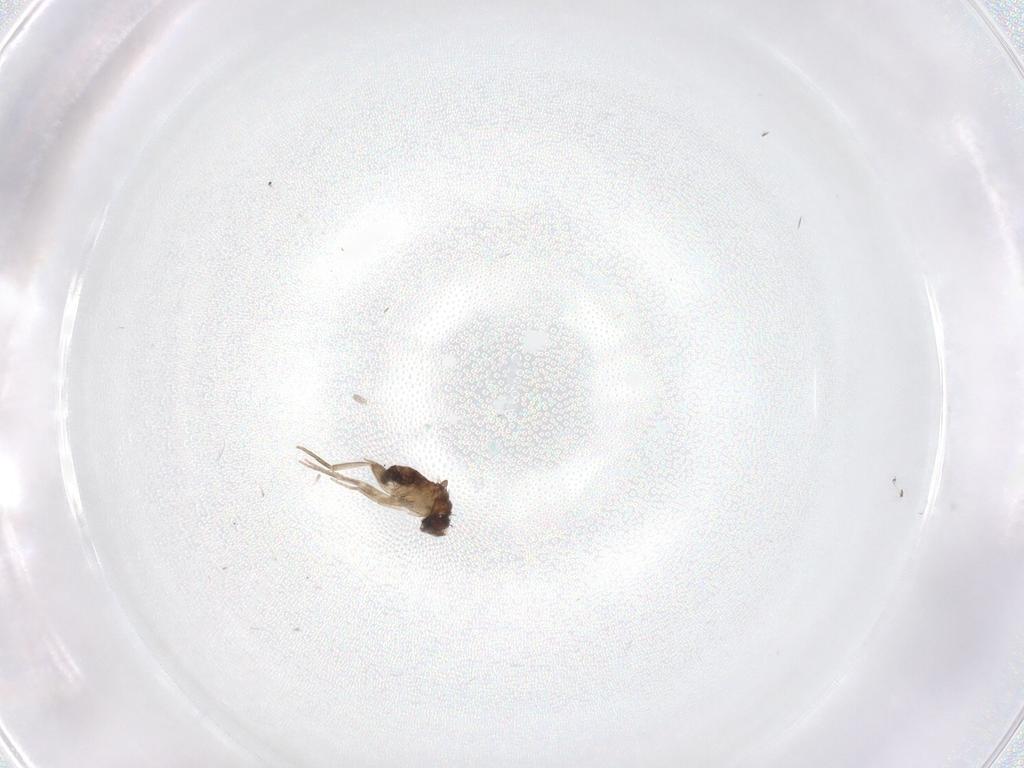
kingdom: Animalia
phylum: Arthropoda
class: Insecta
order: Diptera
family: Phoridae
